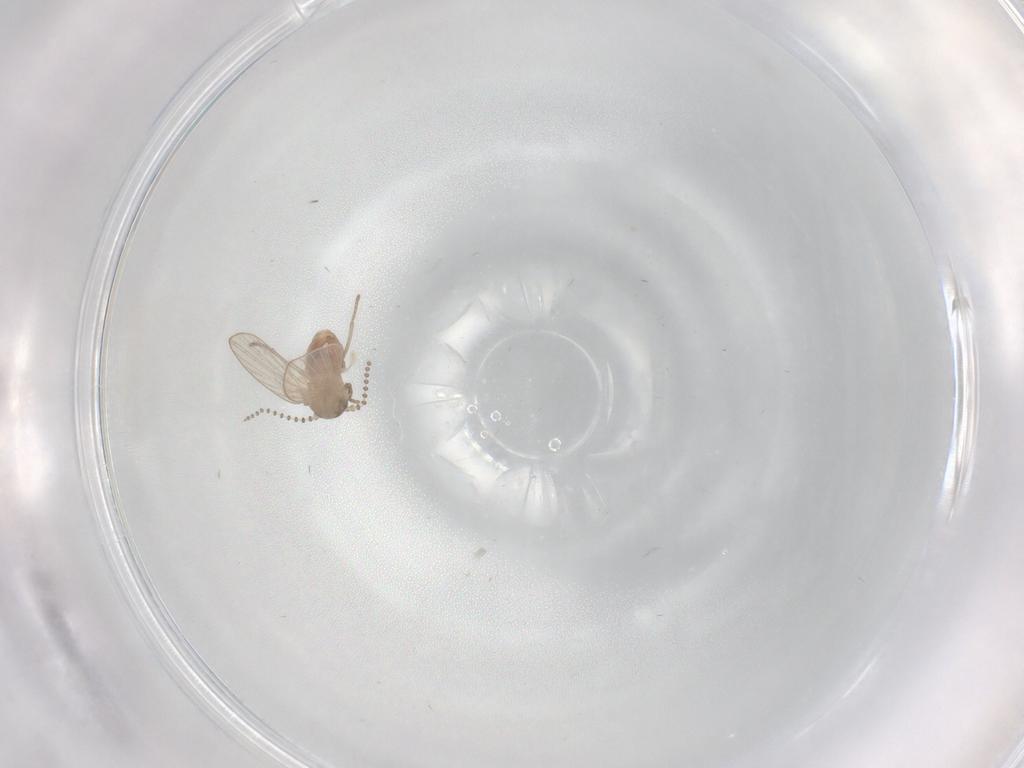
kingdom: Animalia
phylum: Arthropoda
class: Insecta
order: Diptera
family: Psychodidae
